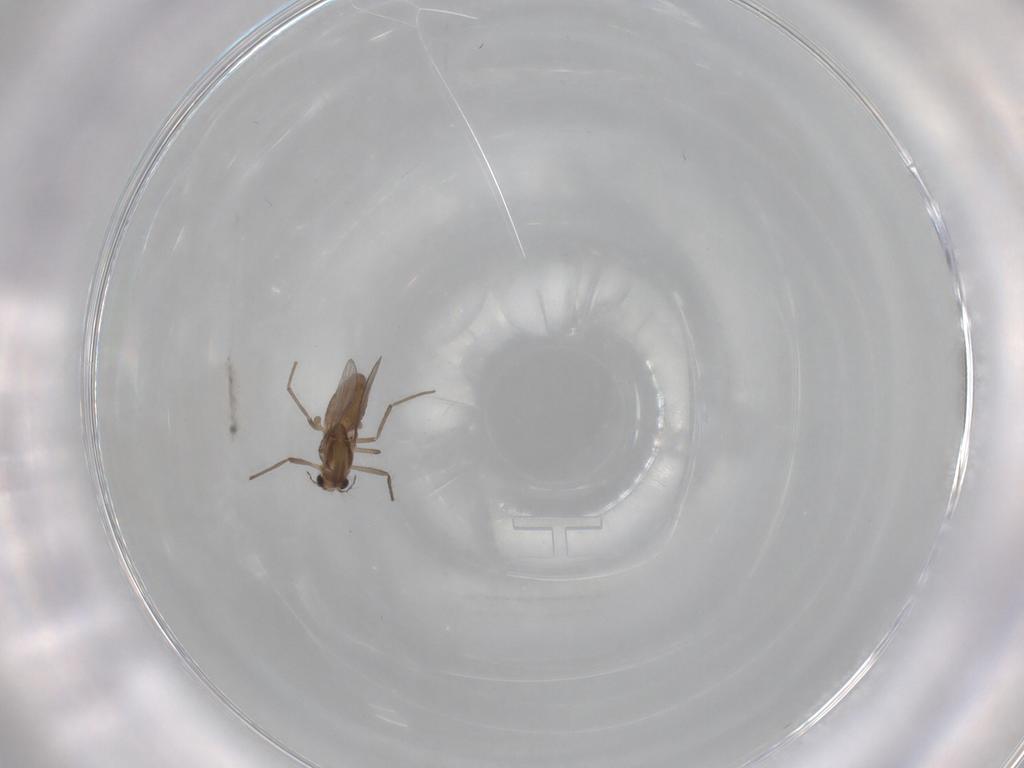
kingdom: Animalia
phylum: Arthropoda
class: Insecta
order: Diptera
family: Chironomidae
